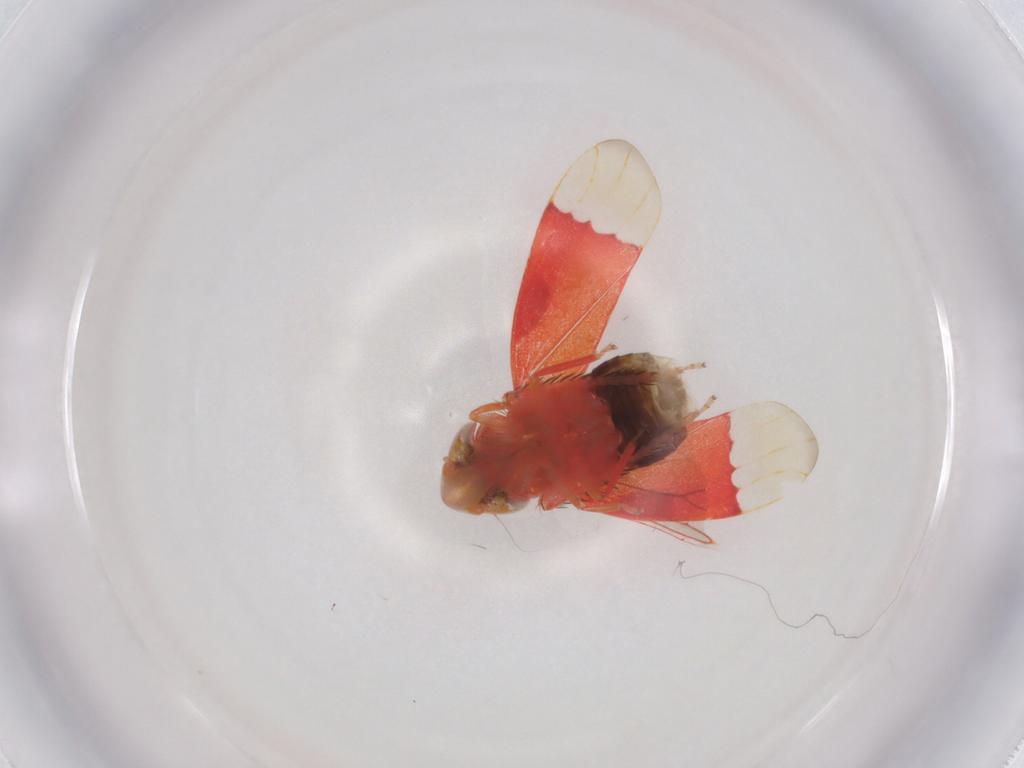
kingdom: Animalia
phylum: Arthropoda
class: Insecta
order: Hemiptera
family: Cicadellidae
